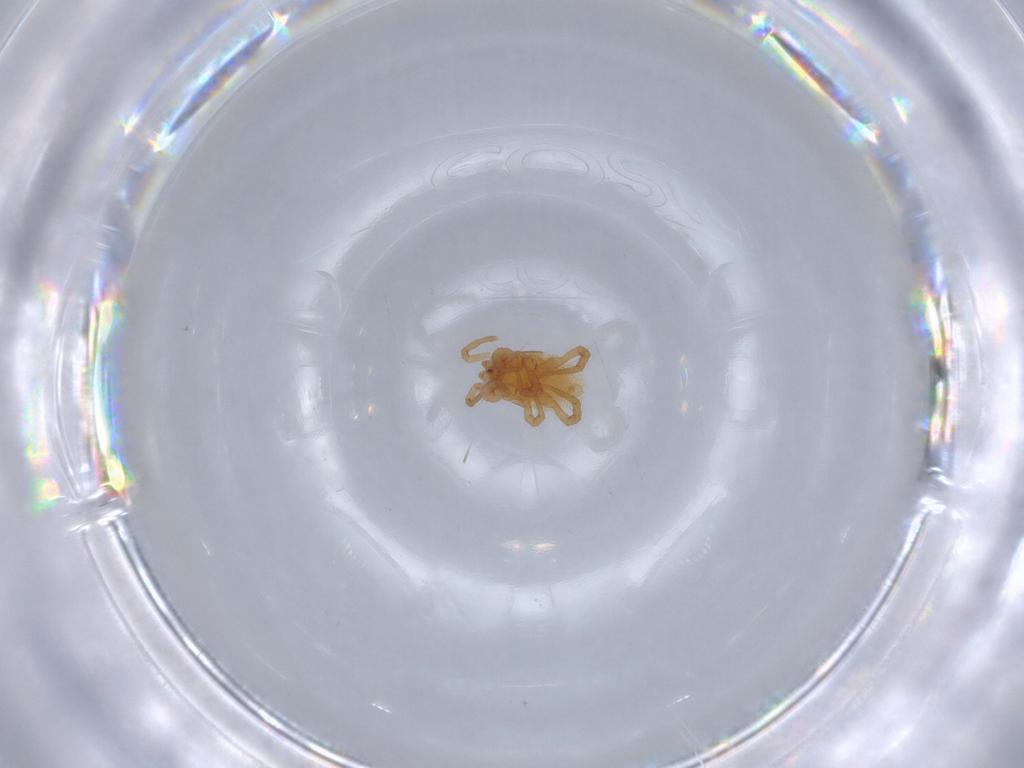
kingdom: Animalia
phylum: Arthropoda
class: Arachnida
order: Mesostigmata
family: Parasitidae
